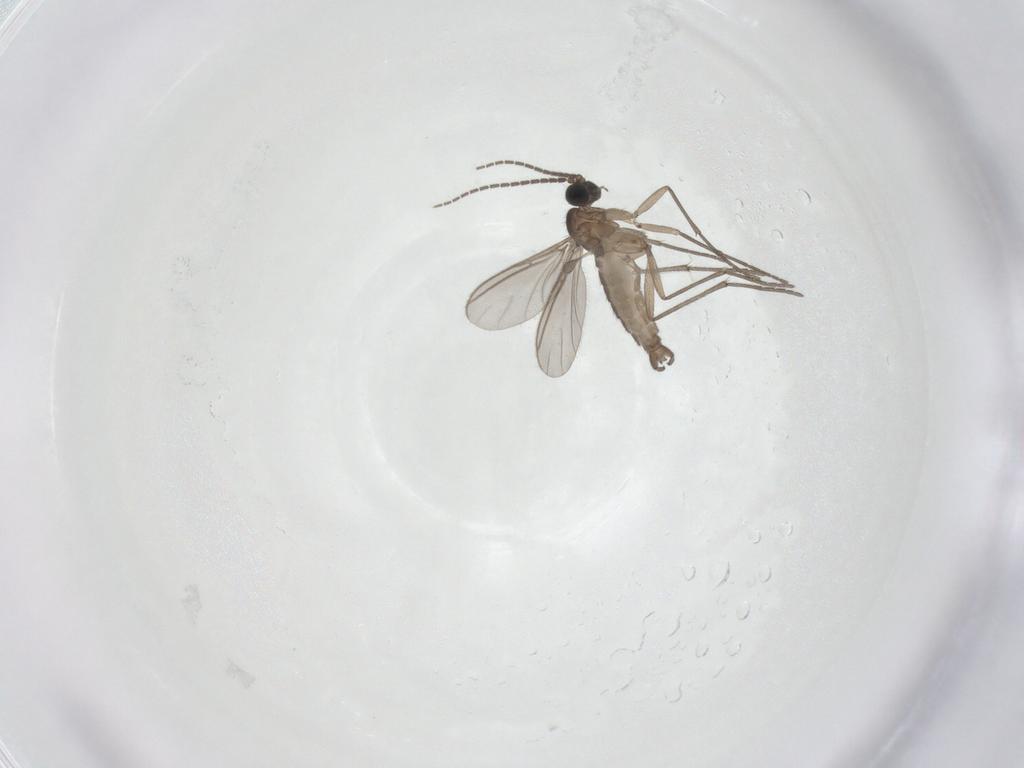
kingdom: Animalia
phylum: Arthropoda
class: Insecta
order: Diptera
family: Sciaridae
